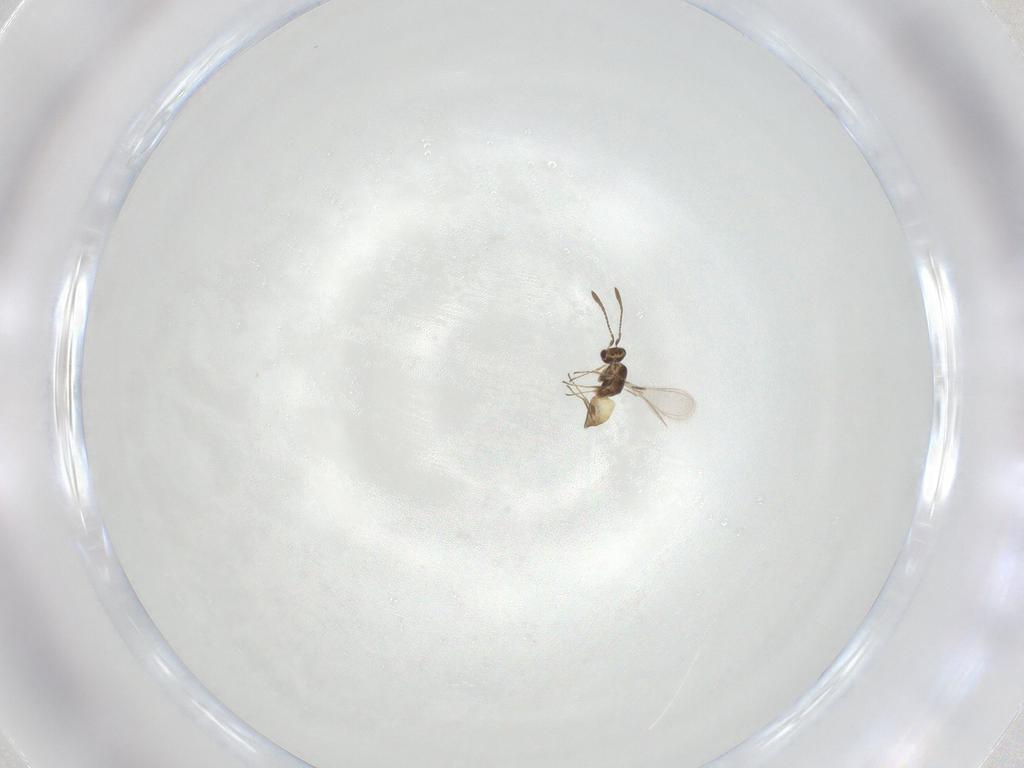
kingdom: Animalia
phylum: Arthropoda
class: Insecta
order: Hymenoptera
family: Mymaridae
